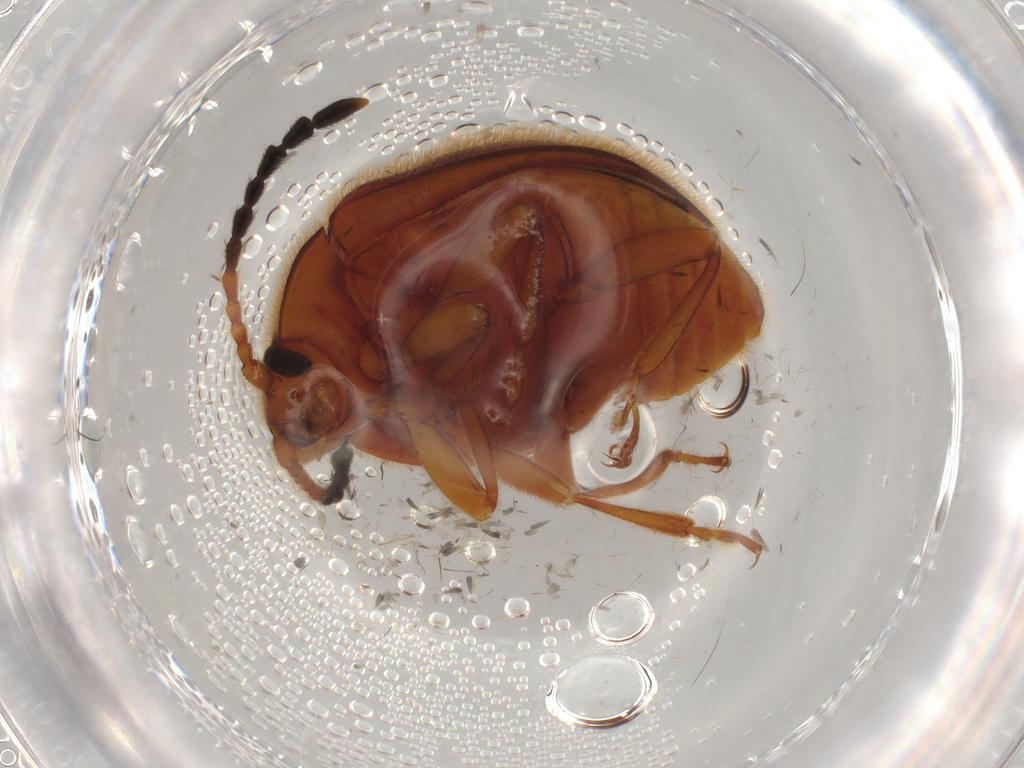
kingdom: Animalia
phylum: Arthropoda
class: Insecta
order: Coleoptera
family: Endomychidae
